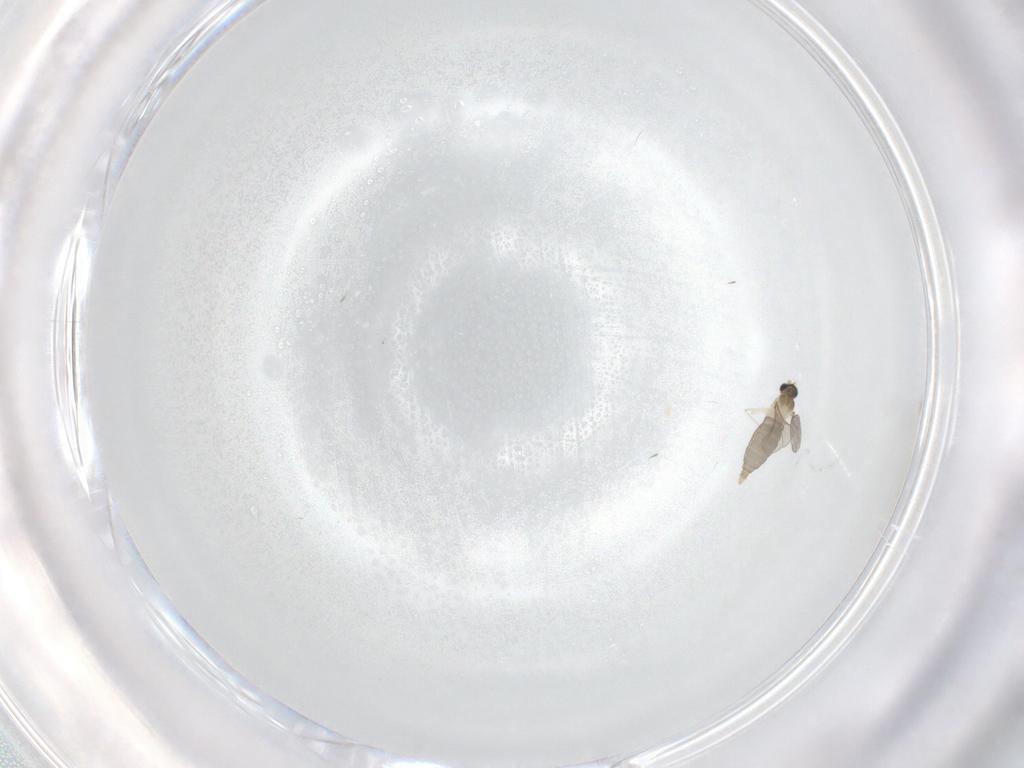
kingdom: Animalia
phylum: Arthropoda
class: Insecta
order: Diptera
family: Cecidomyiidae
